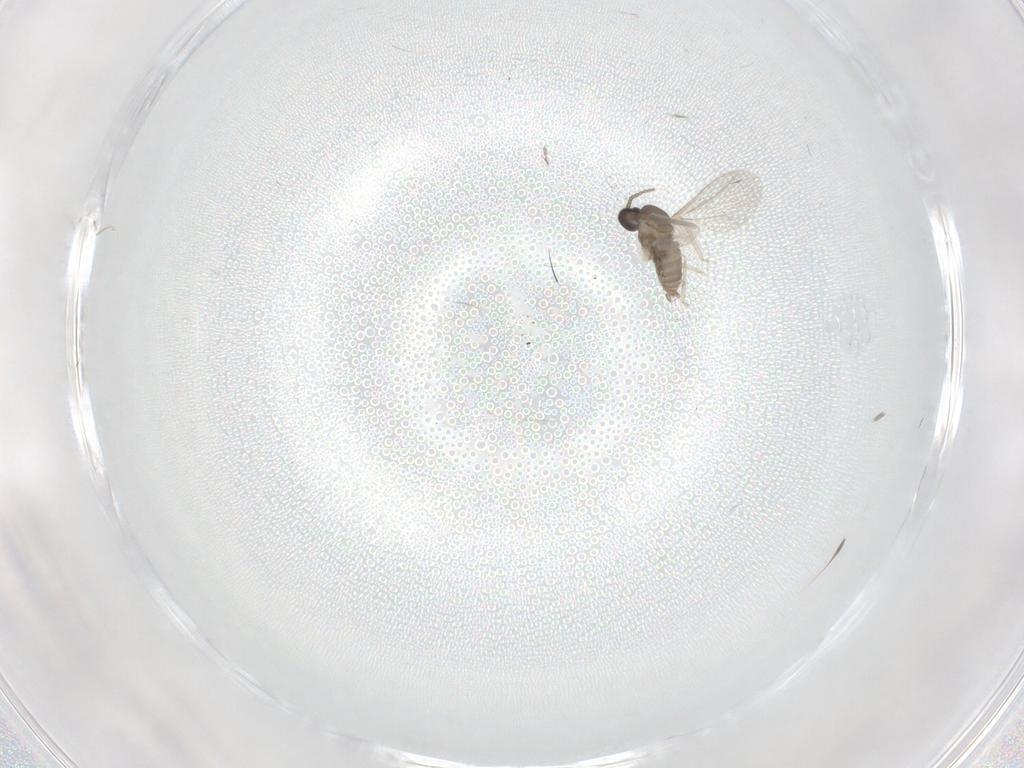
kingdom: Animalia
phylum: Arthropoda
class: Insecta
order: Diptera
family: Cecidomyiidae
